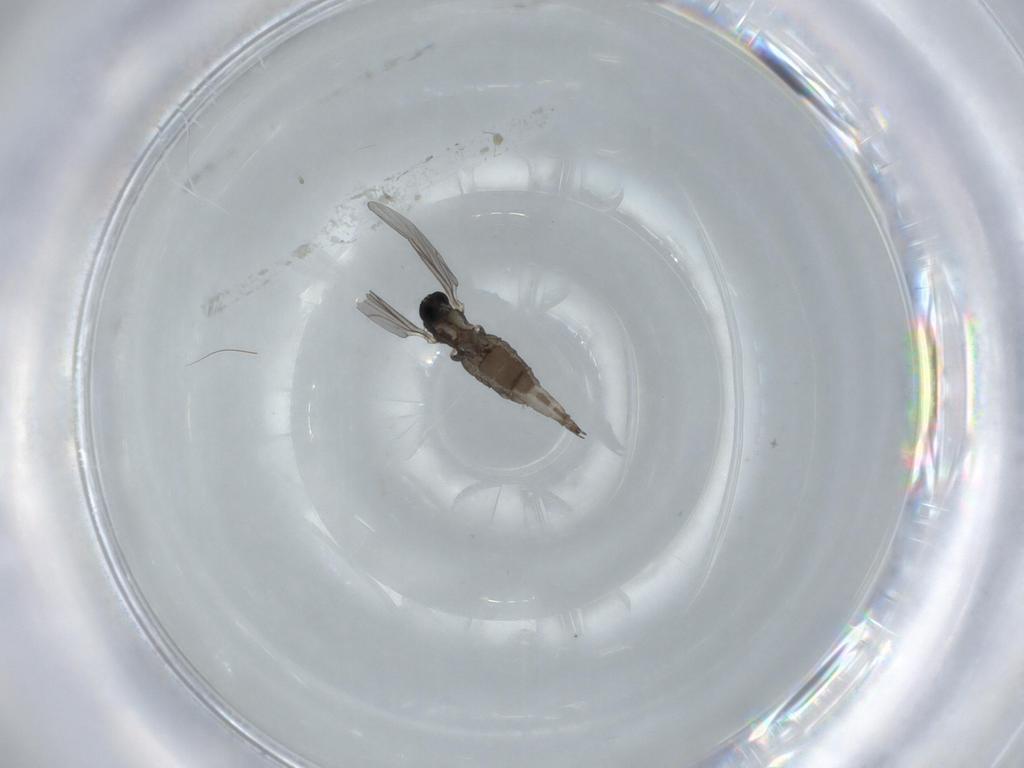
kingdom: Animalia
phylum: Arthropoda
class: Insecta
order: Diptera
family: Sciaridae
